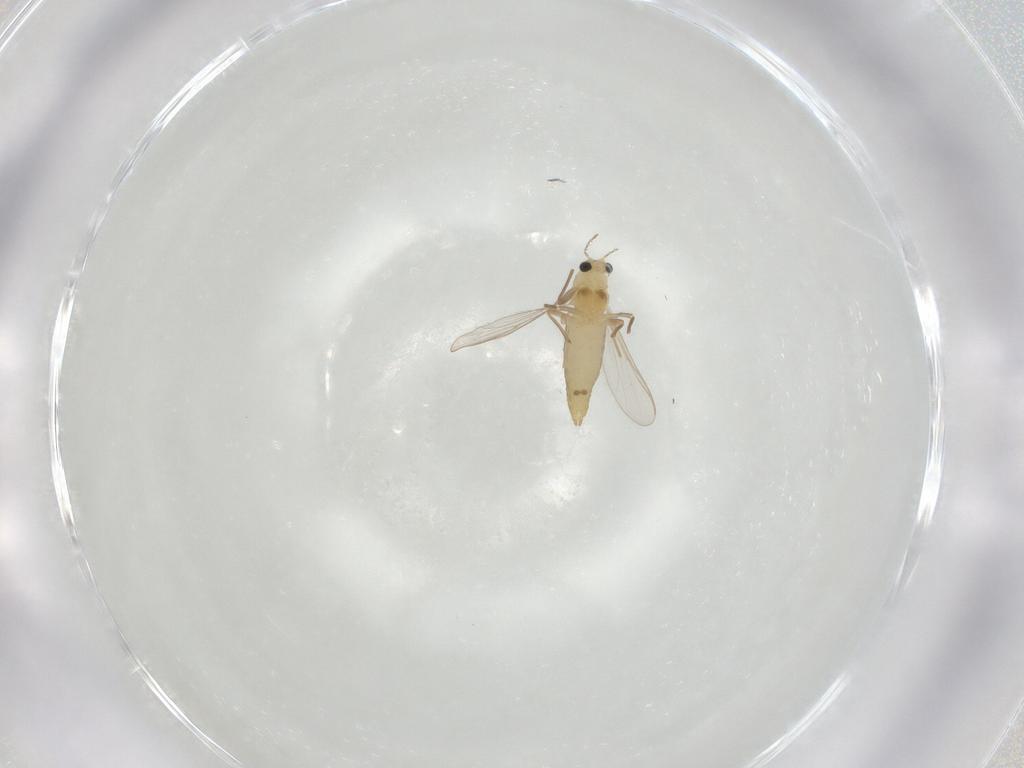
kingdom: Animalia
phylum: Arthropoda
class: Insecta
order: Diptera
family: Chironomidae
